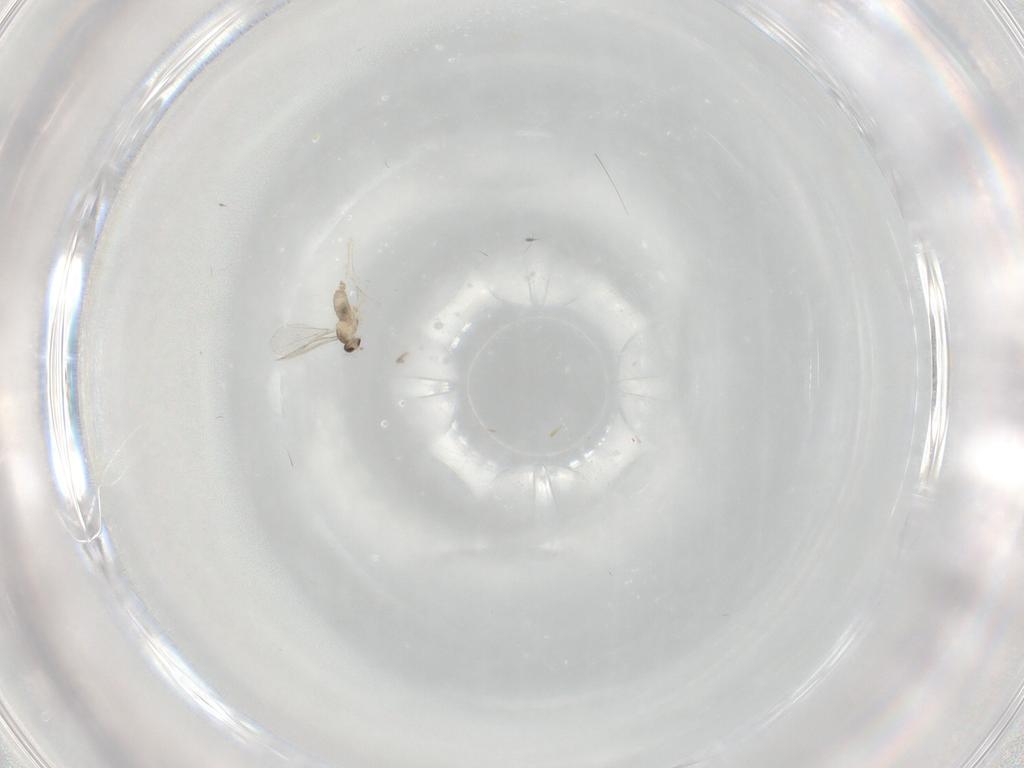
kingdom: Animalia
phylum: Arthropoda
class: Insecta
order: Diptera
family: Cecidomyiidae
